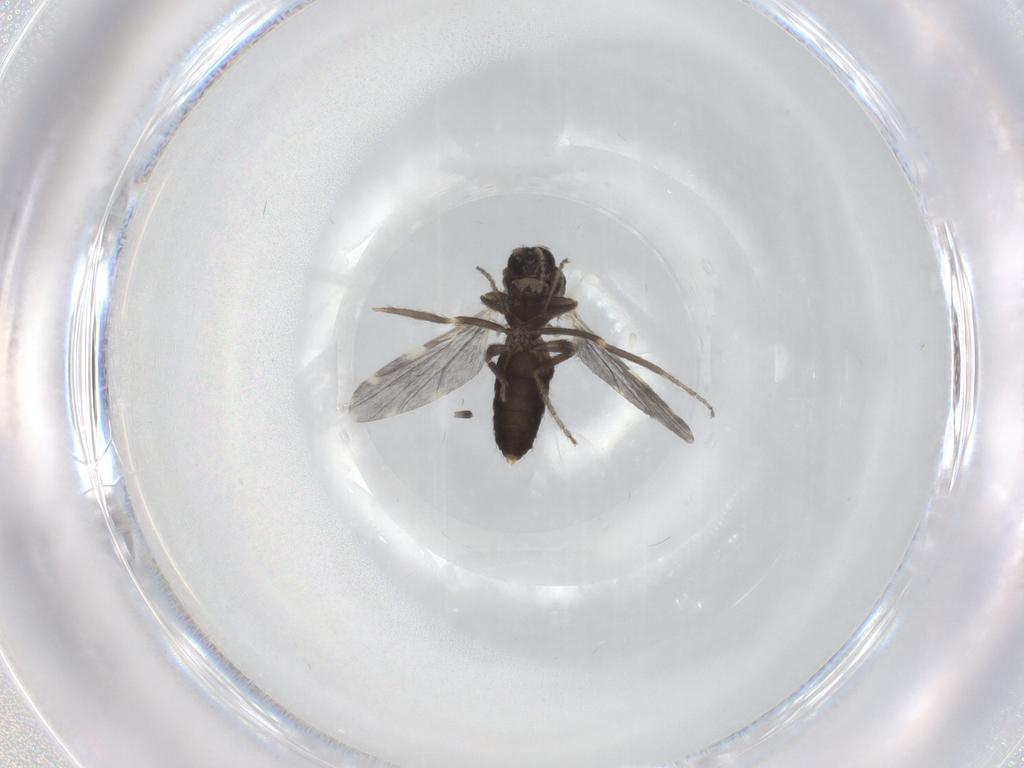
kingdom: Animalia
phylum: Arthropoda
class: Insecta
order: Diptera
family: Ceratopogonidae
